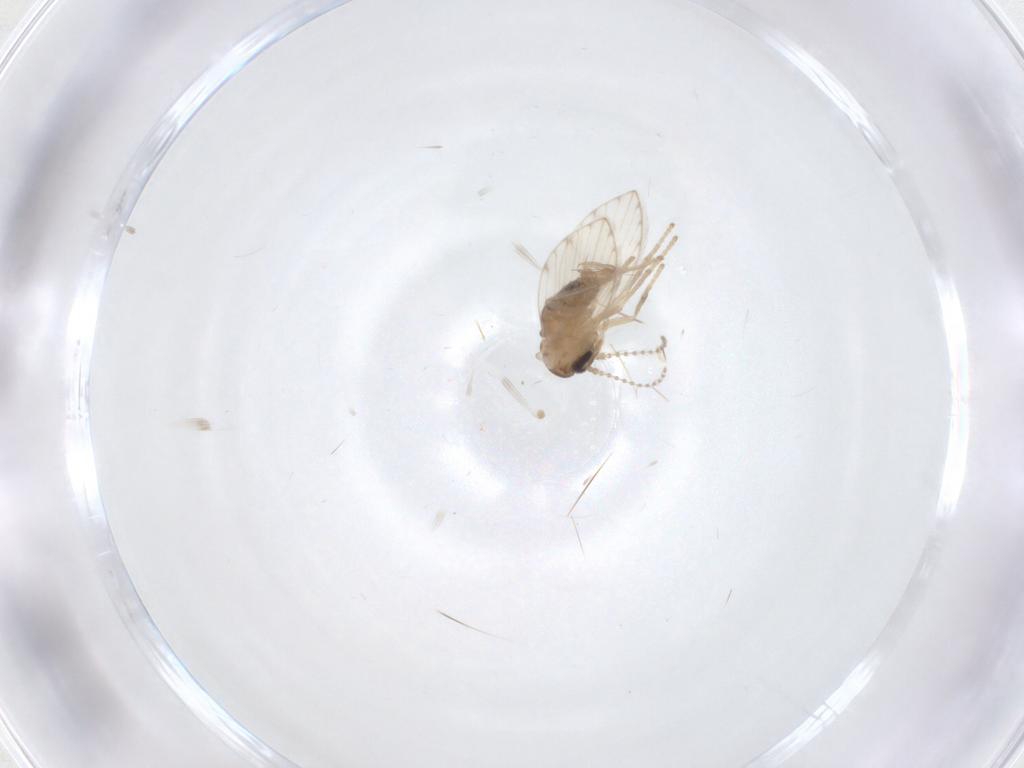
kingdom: Animalia
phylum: Arthropoda
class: Insecta
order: Diptera
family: Psychodidae
